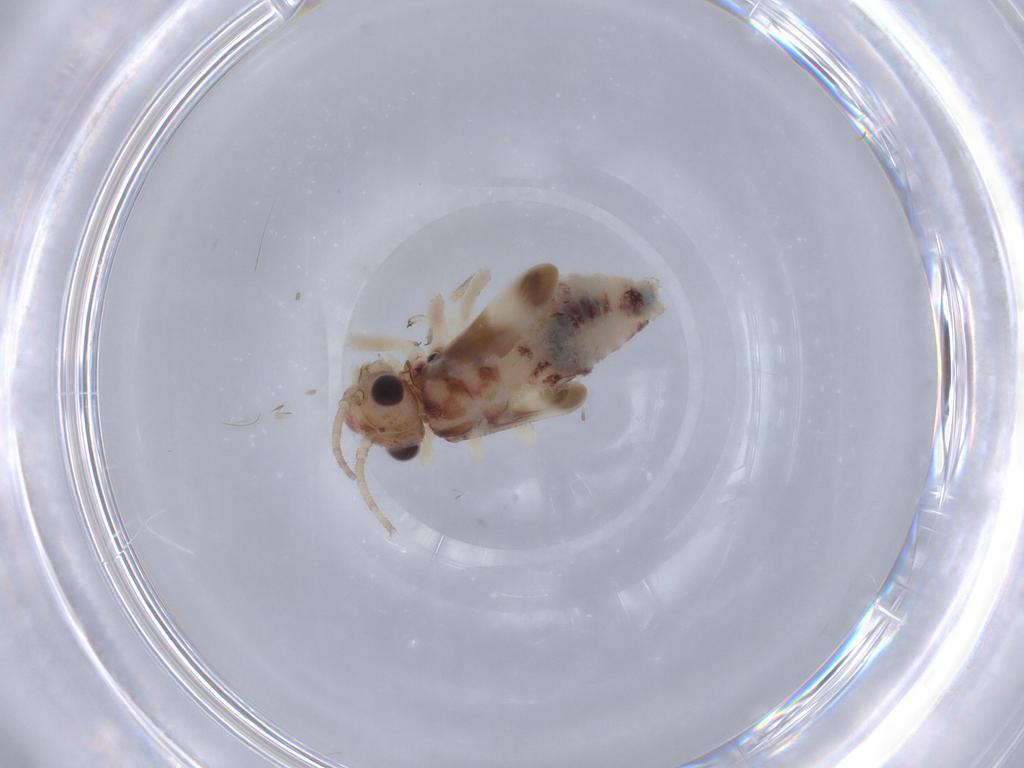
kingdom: Animalia
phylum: Arthropoda
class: Insecta
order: Psocodea
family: Amphipsocidae
